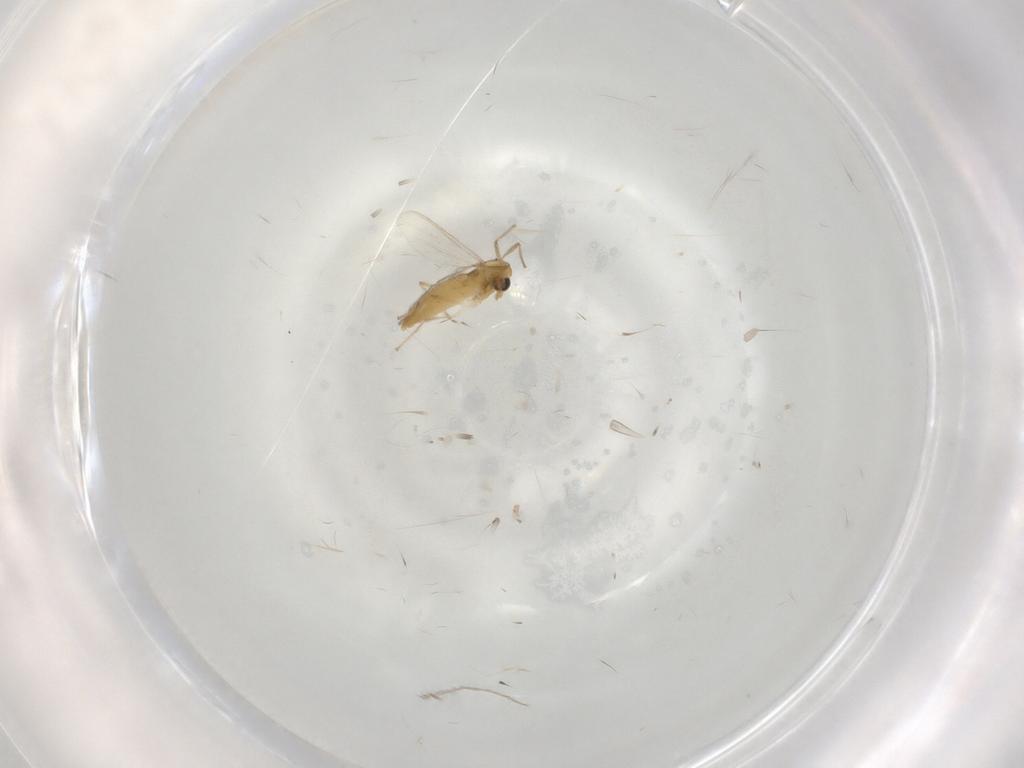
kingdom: Animalia
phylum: Arthropoda
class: Insecta
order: Diptera
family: Chironomidae
